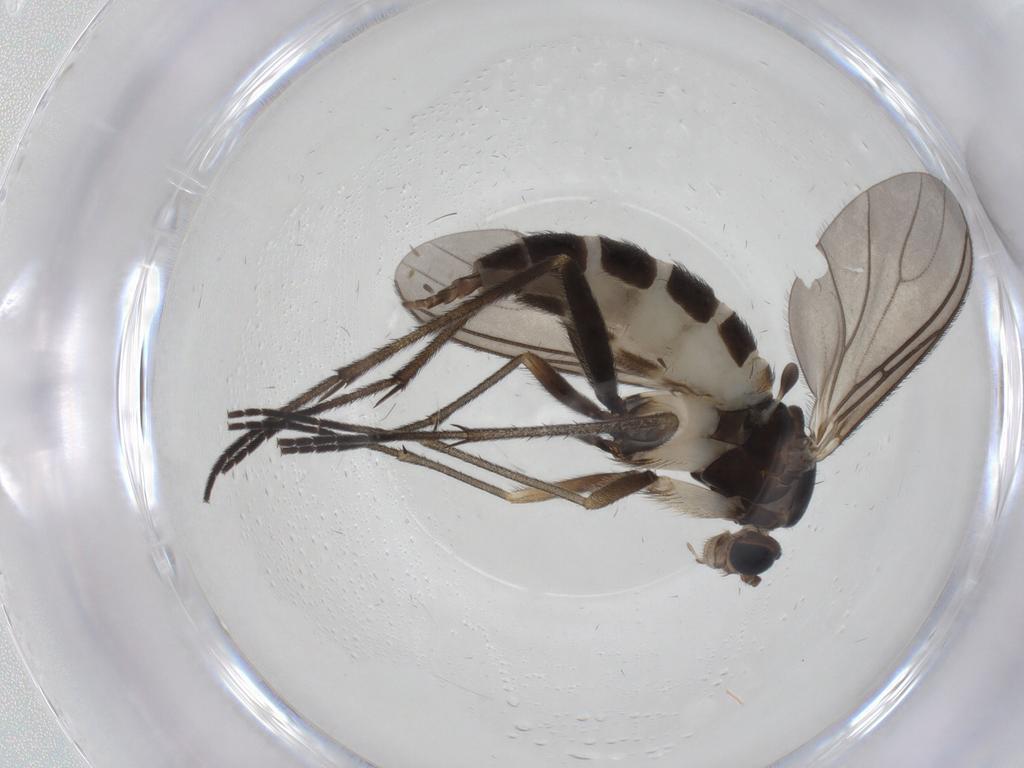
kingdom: Animalia
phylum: Arthropoda
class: Insecta
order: Diptera
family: Sciaridae
